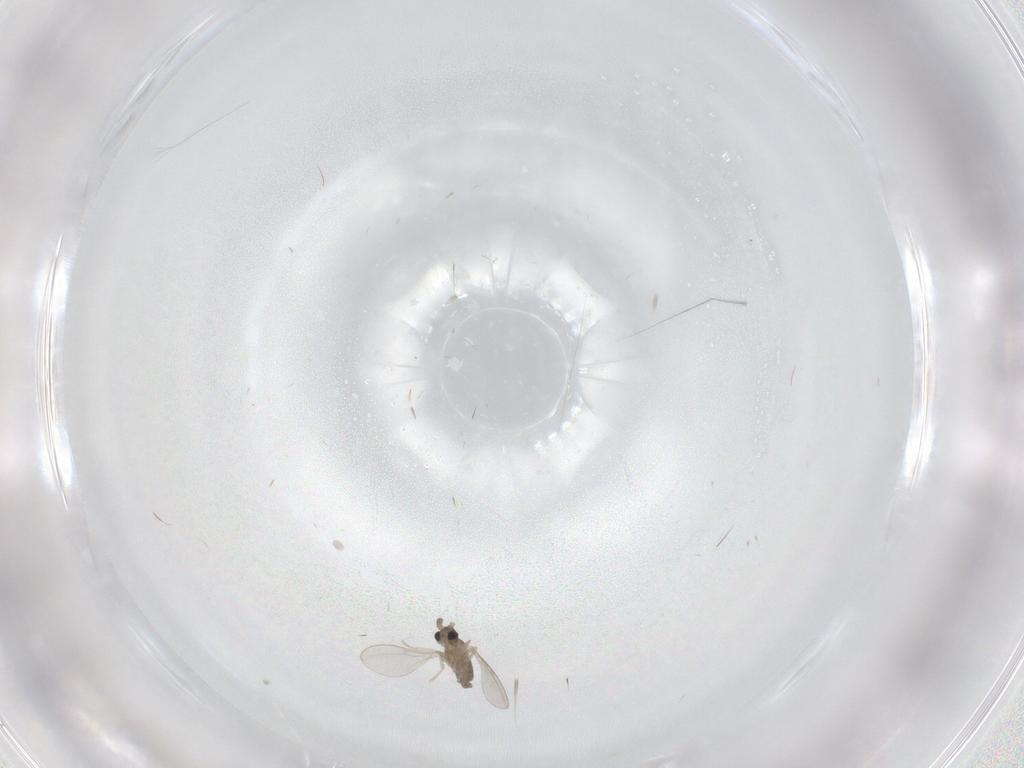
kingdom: Animalia
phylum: Arthropoda
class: Insecta
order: Diptera
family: Cecidomyiidae
